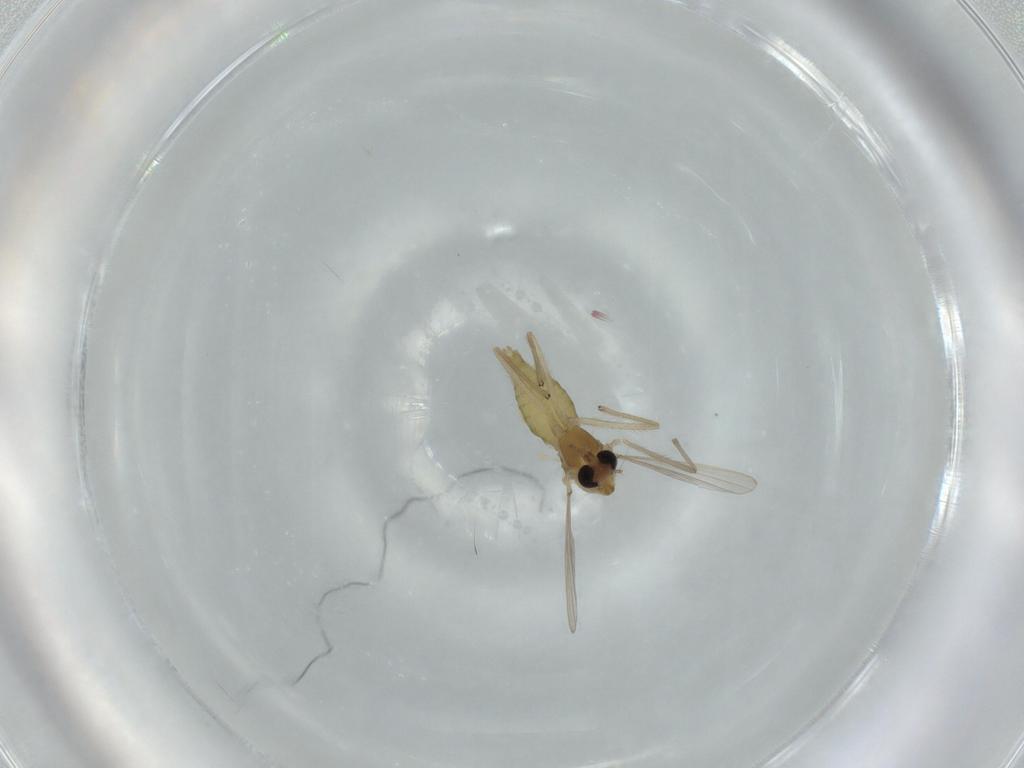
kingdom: Animalia
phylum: Arthropoda
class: Insecta
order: Diptera
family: Chironomidae
